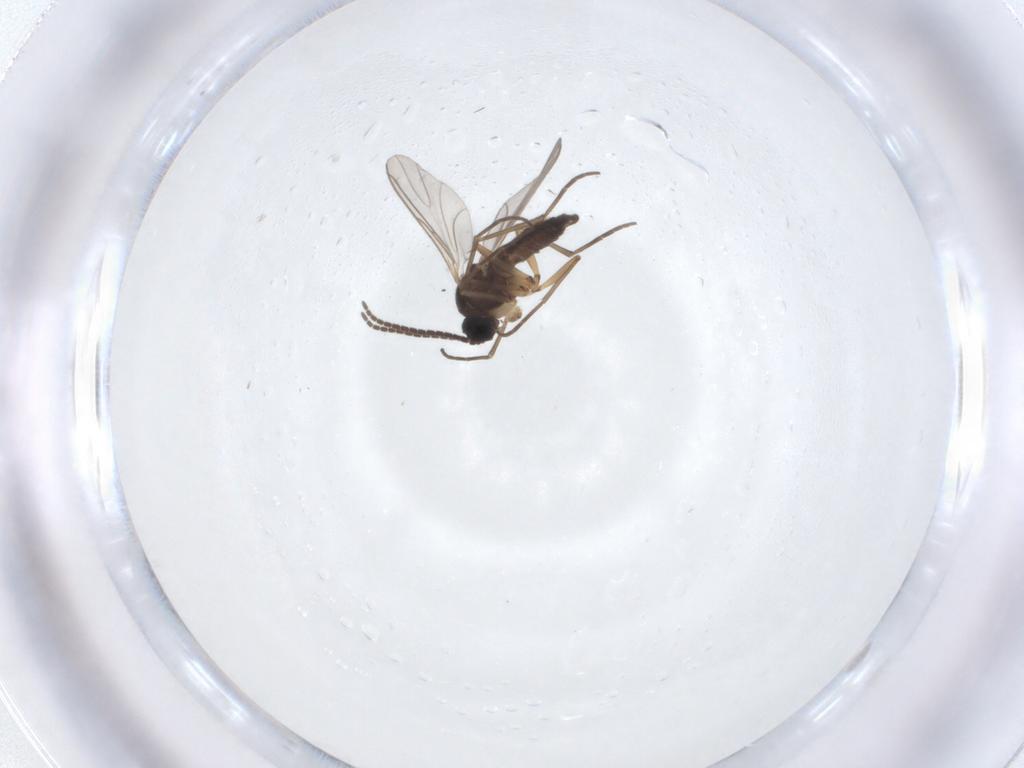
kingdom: Animalia
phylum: Arthropoda
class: Insecta
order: Diptera
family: Sciaridae
